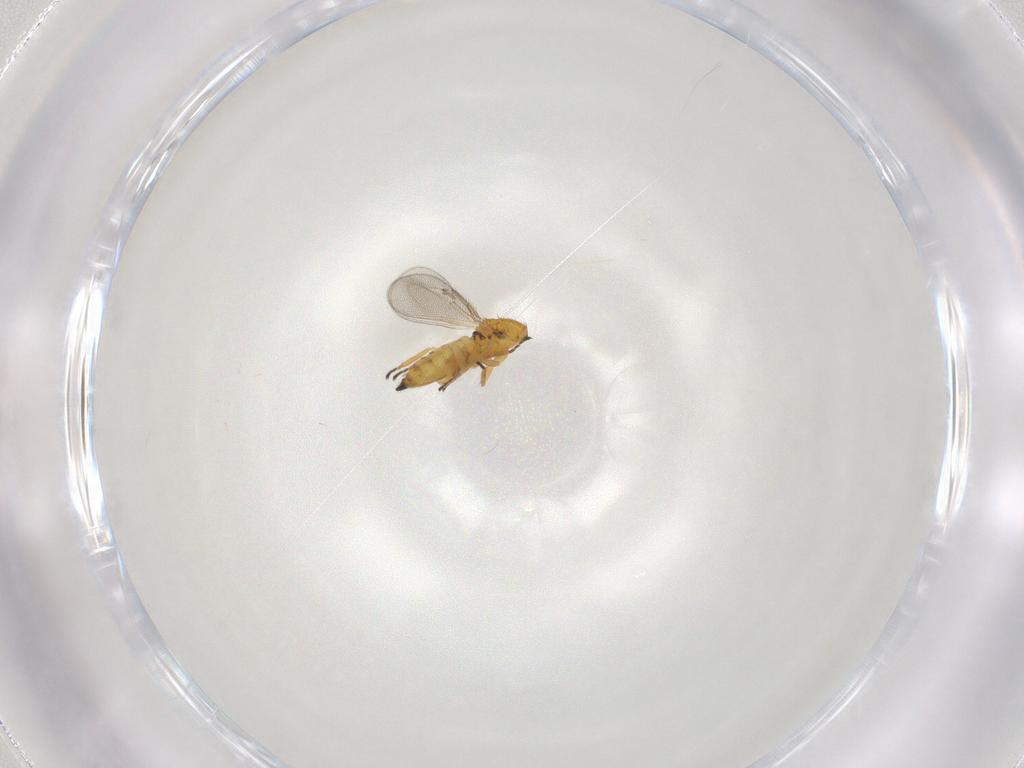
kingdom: Animalia
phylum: Arthropoda
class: Insecta
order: Hymenoptera
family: Eulophidae
